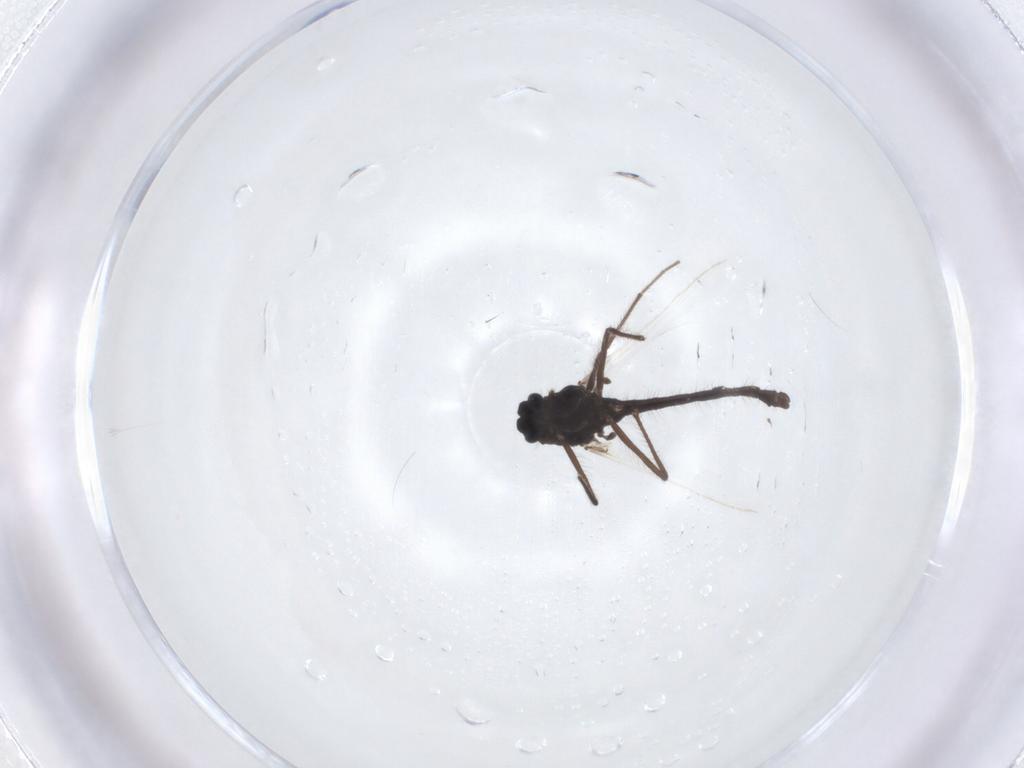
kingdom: Animalia
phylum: Arthropoda
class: Insecta
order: Diptera
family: Chironomidae
